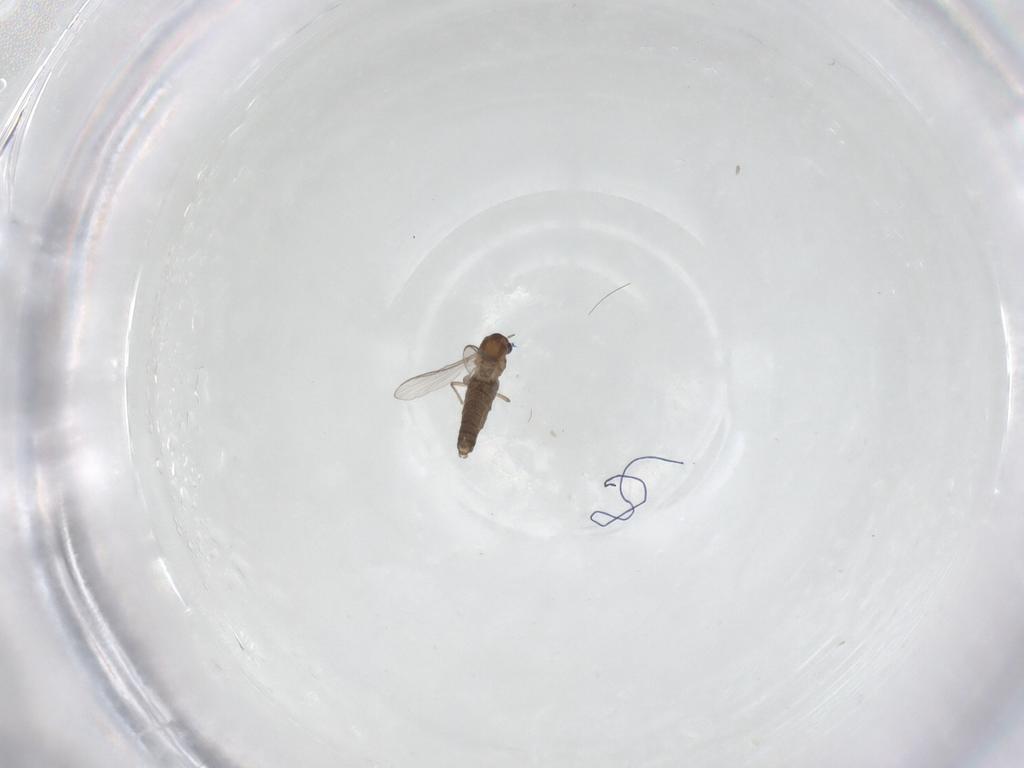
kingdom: Animalia
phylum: Arthropoda
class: Insecta
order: Diptera
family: Chironomidae
